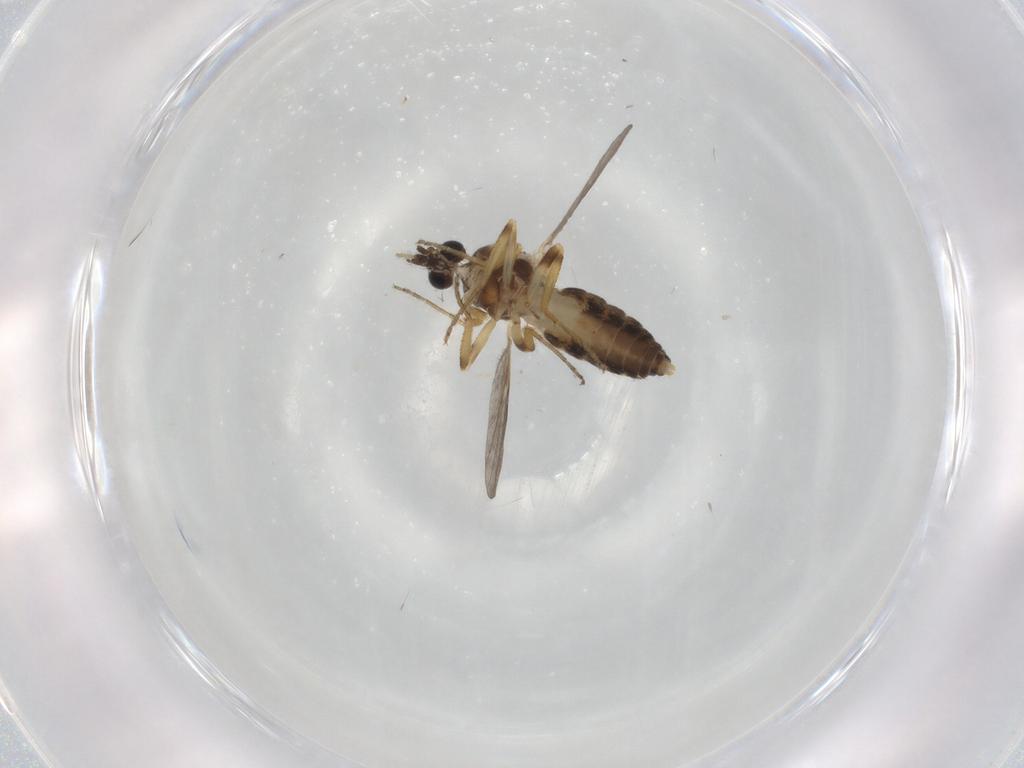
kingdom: Animalia
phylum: Arthropoda
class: Insecta
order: Diptera
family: Ceratopogonidae
